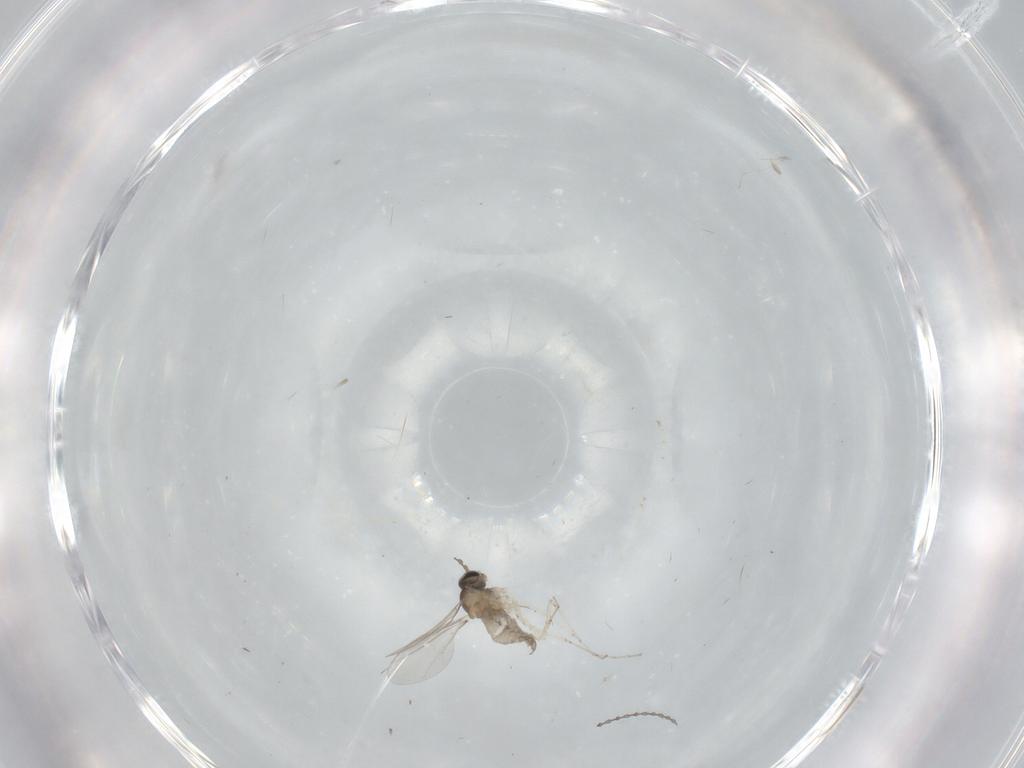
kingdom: Animalia
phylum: Arthropoda
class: Insecta
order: Diptera
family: Cecidomyiidae
